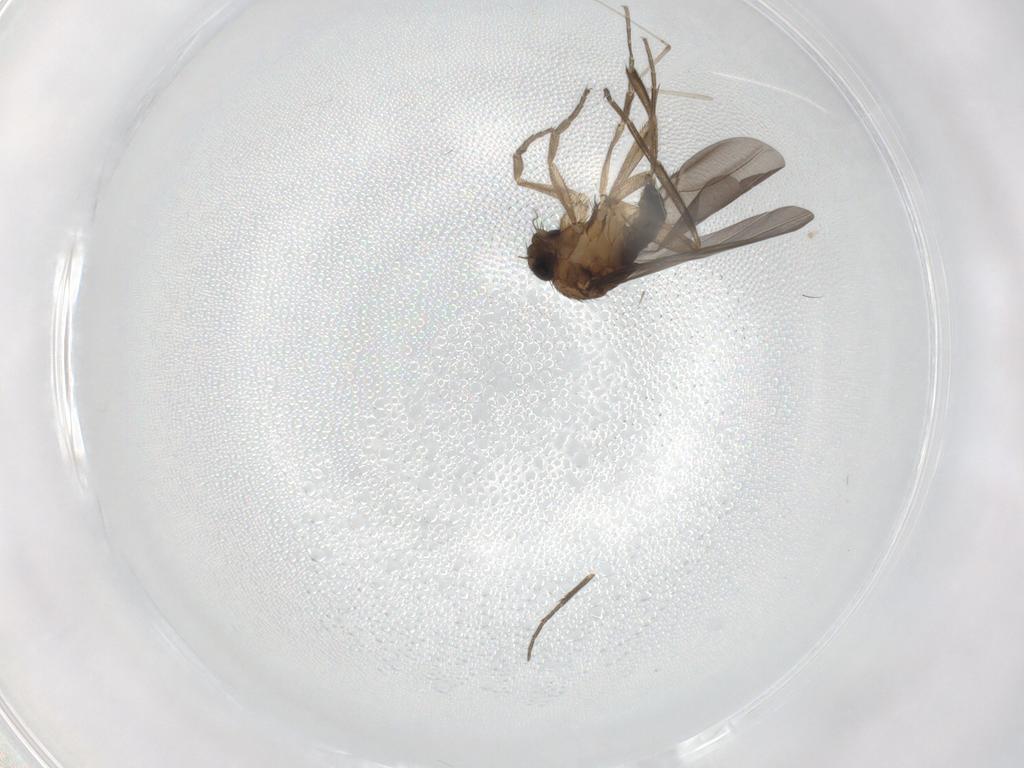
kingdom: Animalia
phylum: Arthropoda
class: Insecta
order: Diptera
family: Phoridae
